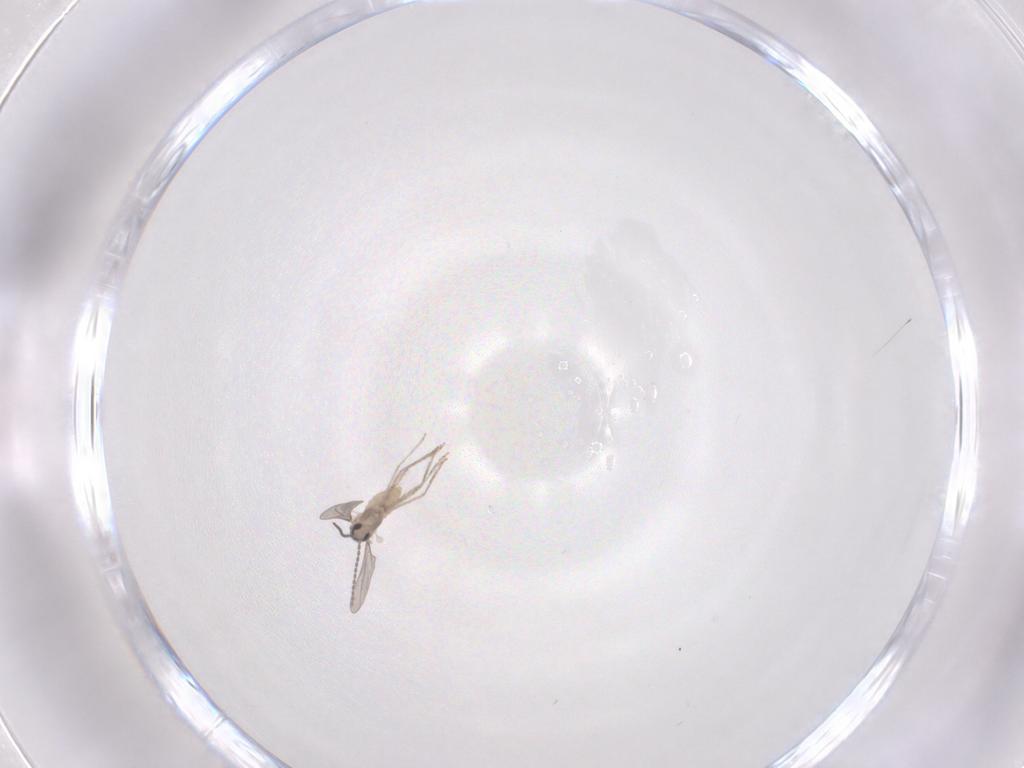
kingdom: Animalia
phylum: Arthropoda
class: Insecta
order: Diptera
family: Cecidomyiidae
